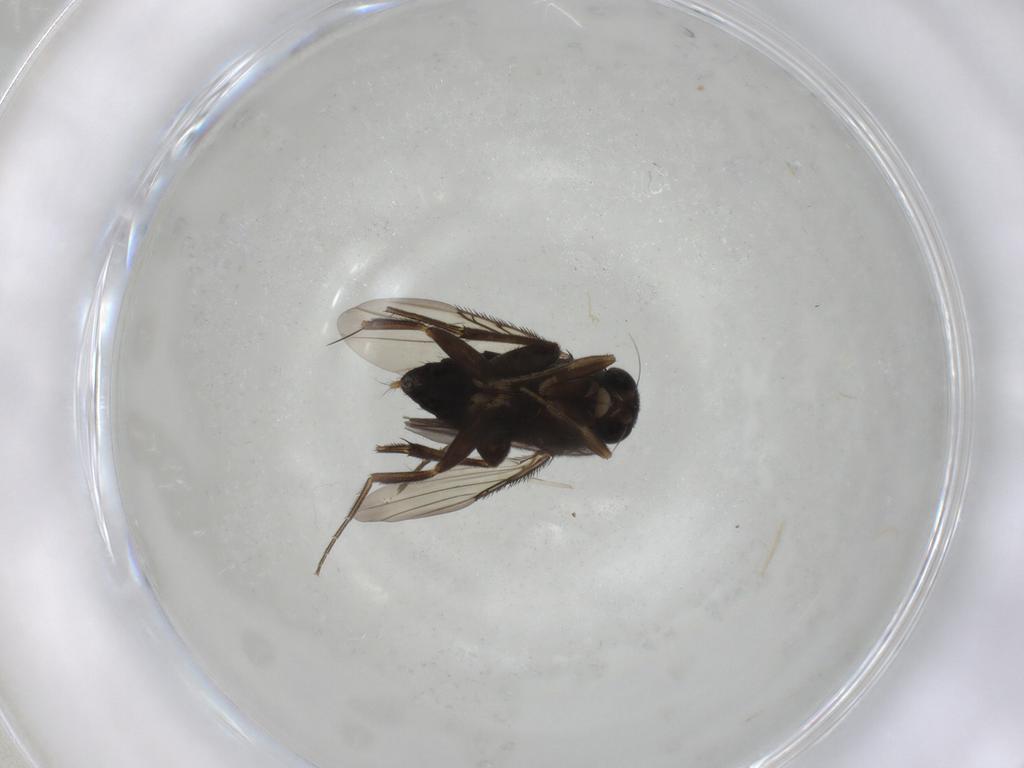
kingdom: Animalia
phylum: Arthropoda
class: Insecta
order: Diptera
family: Phoridae
